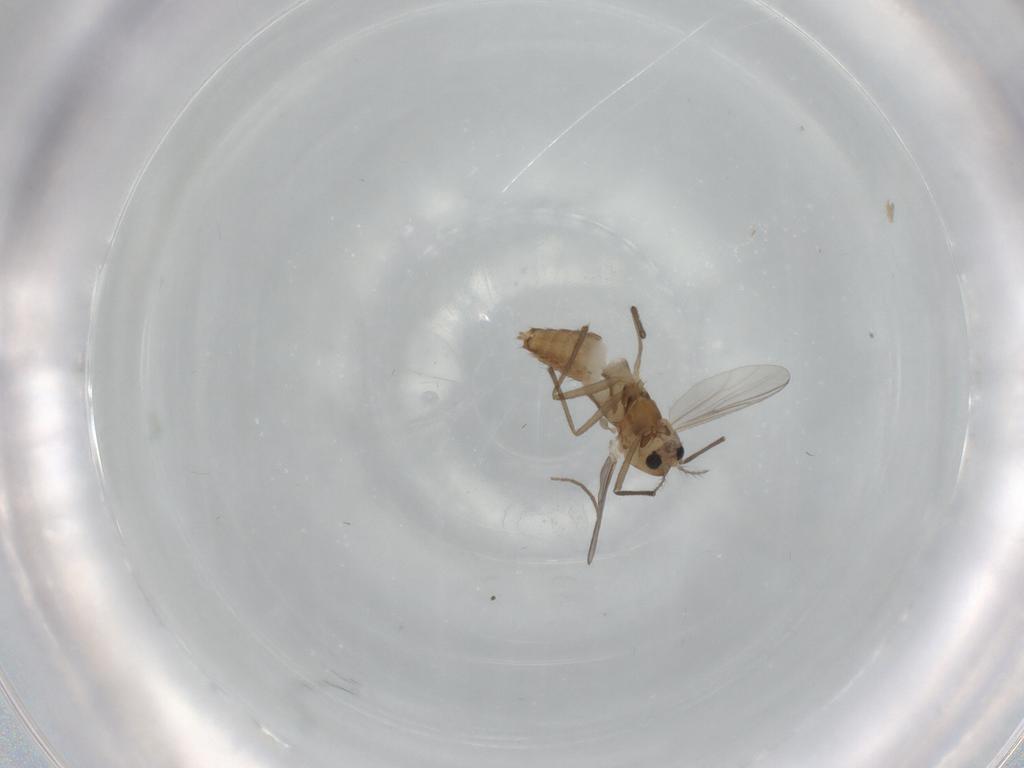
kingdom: Animalia
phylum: Arthropoda
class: Insecta
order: Diptera
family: Chironomidae
